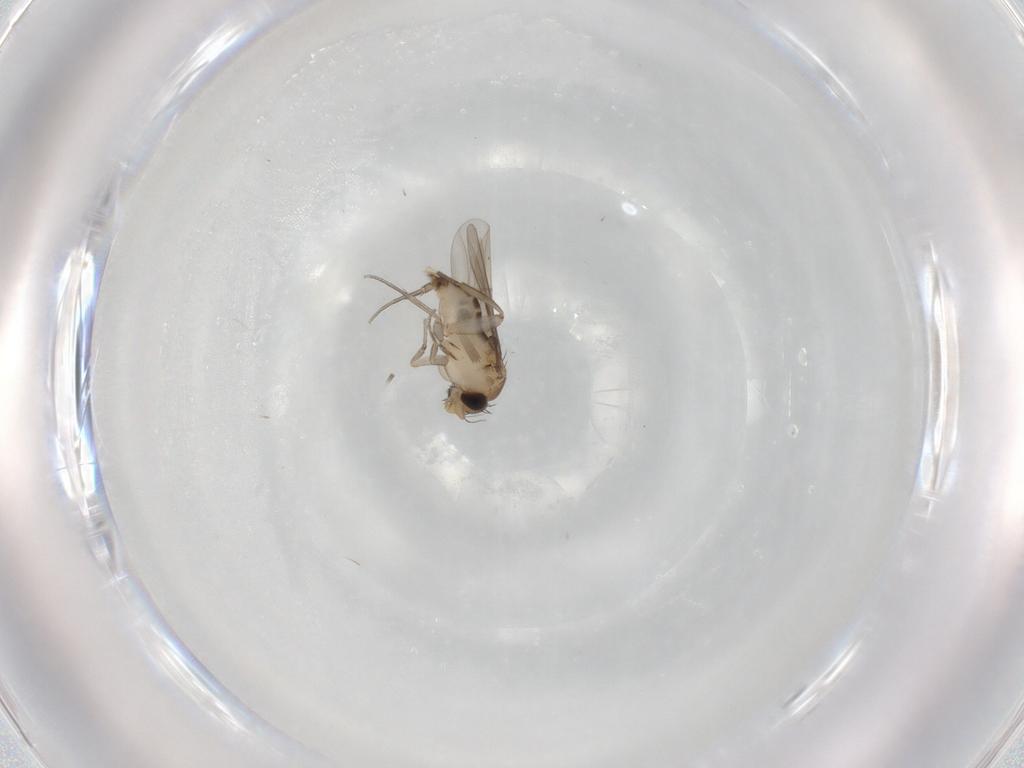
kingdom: Animalia
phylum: Arthropoda
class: Insecta
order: Diptera
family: Phoridae
